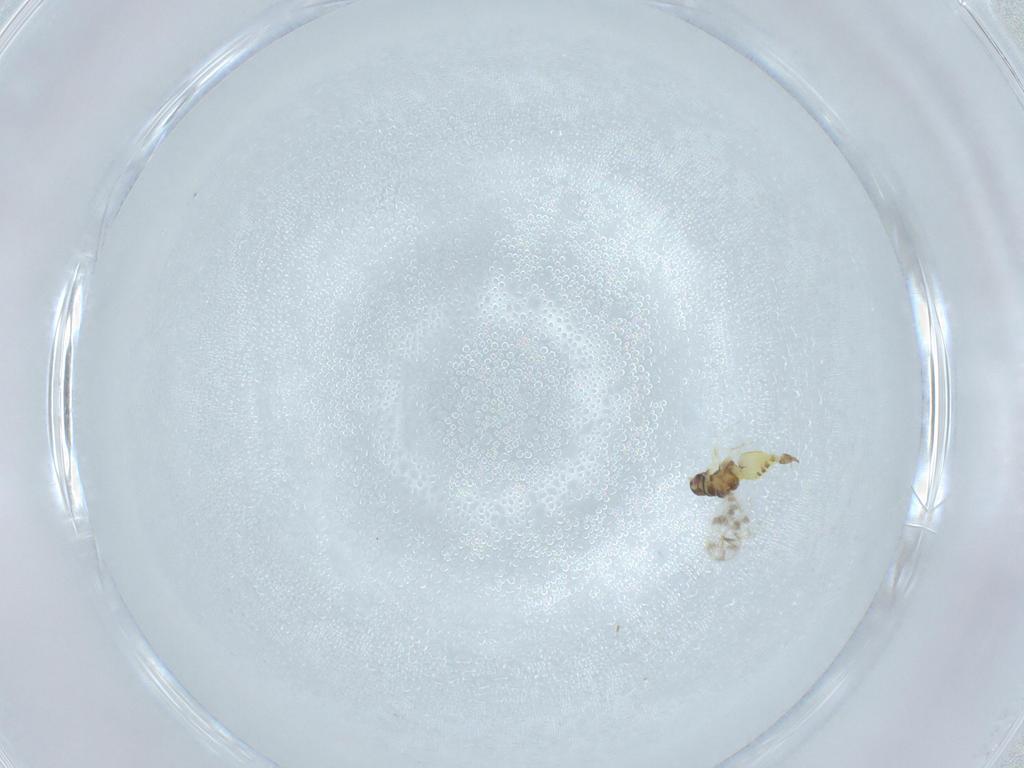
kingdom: Animalia
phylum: Arthropoda
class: Insecta
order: Hemiptera
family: Aleyrodidae
